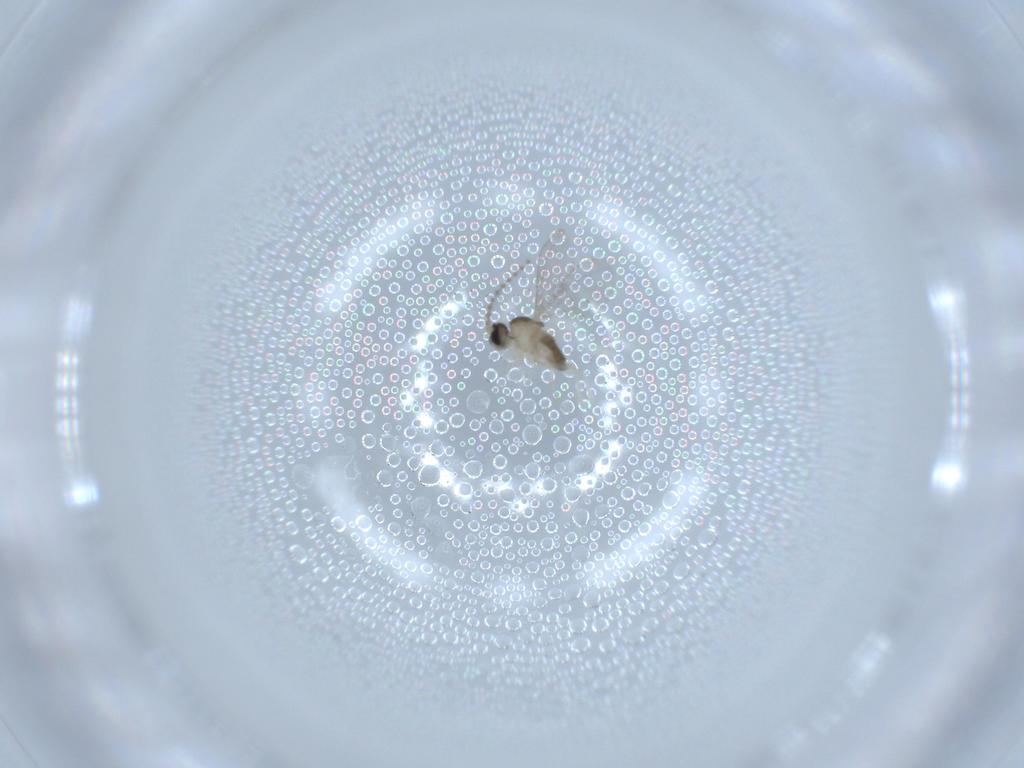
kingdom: Animalia
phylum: Arthropoda
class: Insecta
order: Diptera
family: Cecidomyiidae
